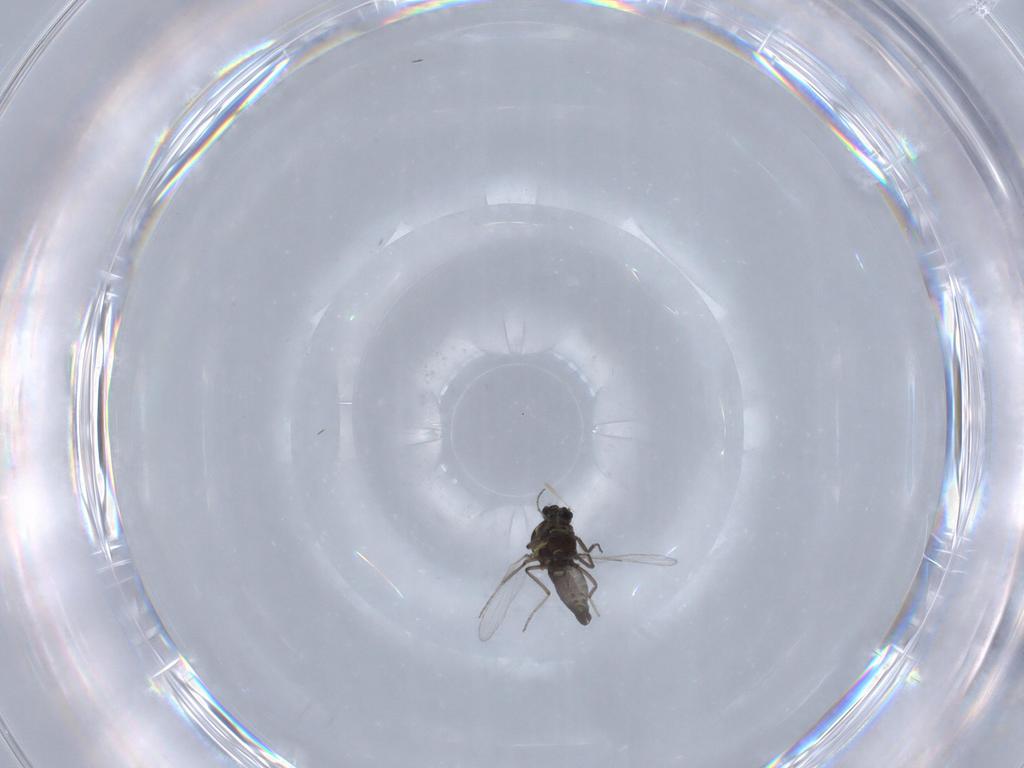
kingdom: Animalia
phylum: Arthropoda
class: Insecta
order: Diptera
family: Ceratopogonidae
